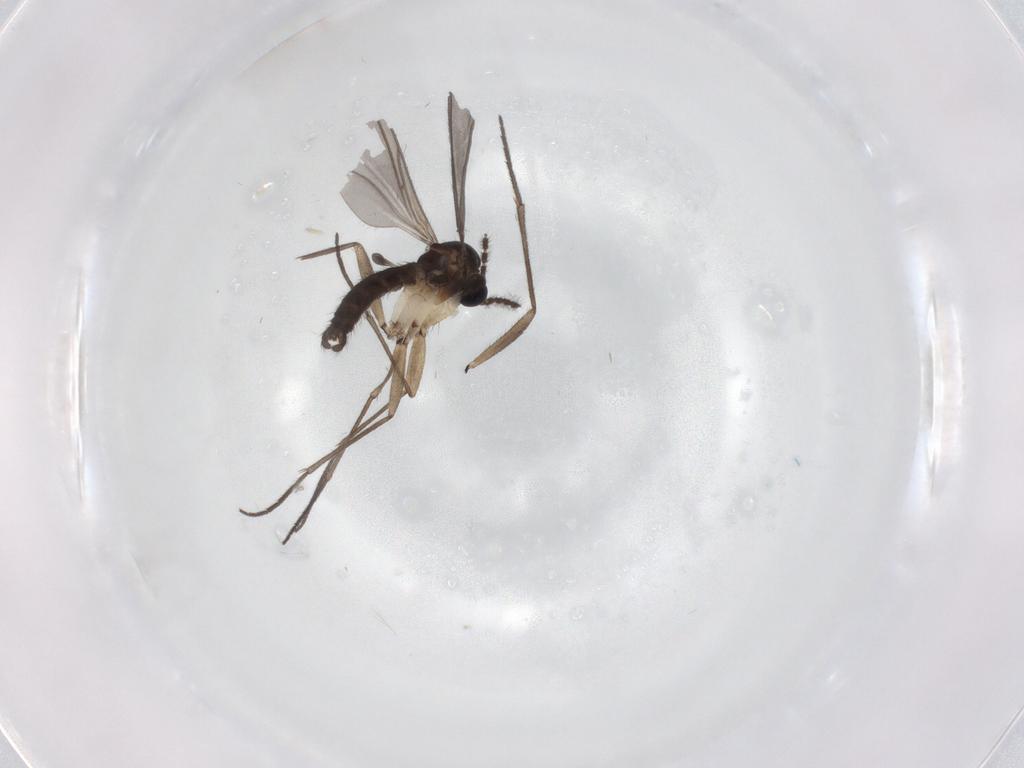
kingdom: Animalia
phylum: Arthropoda
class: Insecta
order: Diptera
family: Sciaridae
